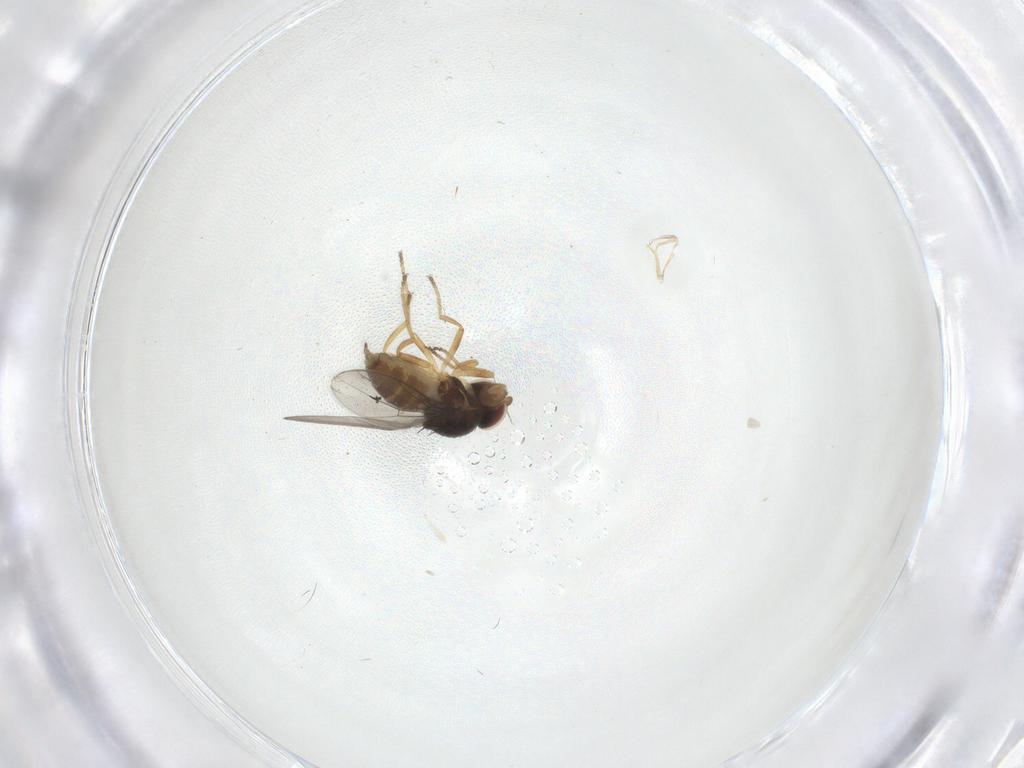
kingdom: Animalia
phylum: Arthropoda
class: Insecta
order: Diptera
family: Chloropidae
